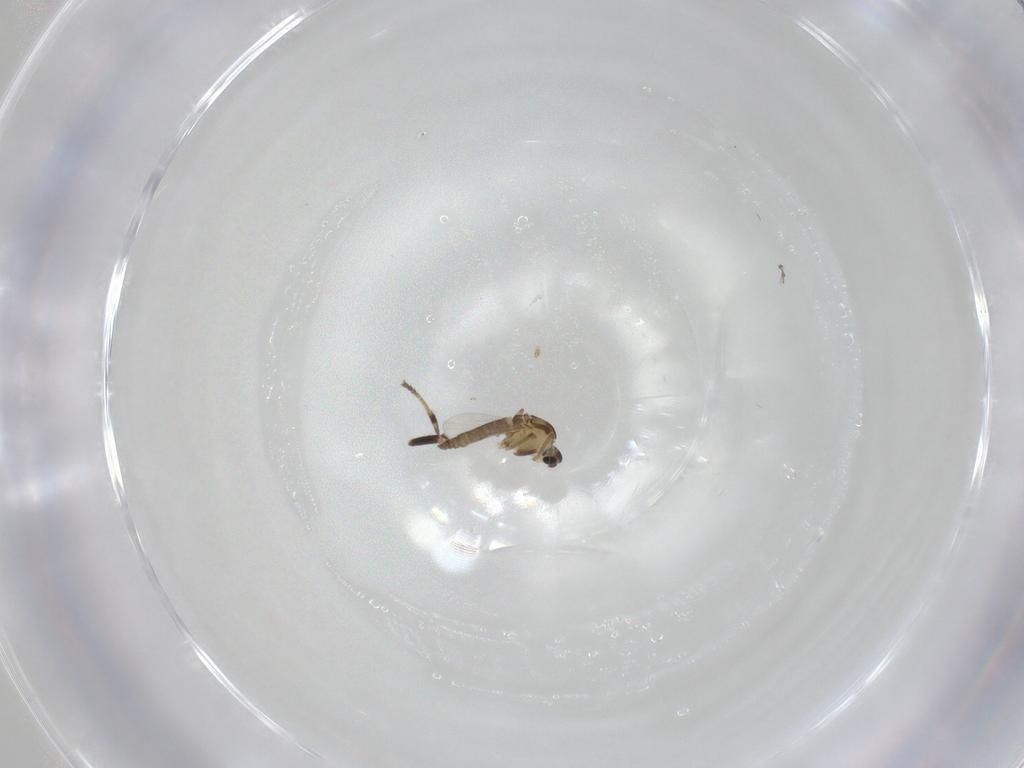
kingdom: Animalia
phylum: Arthropoda
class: Insecta
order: Diptera
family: Chironomidae
